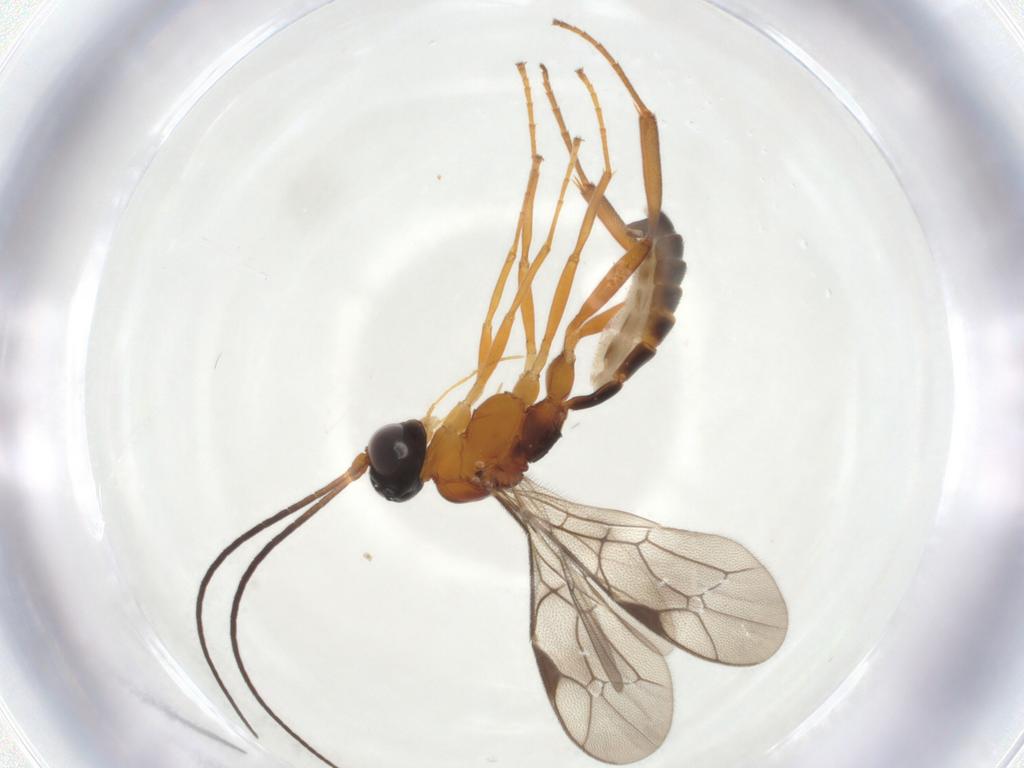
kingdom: Animalia
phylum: Arthropoda
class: Insecta
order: Hymenoptera
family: Ichneumonidae
